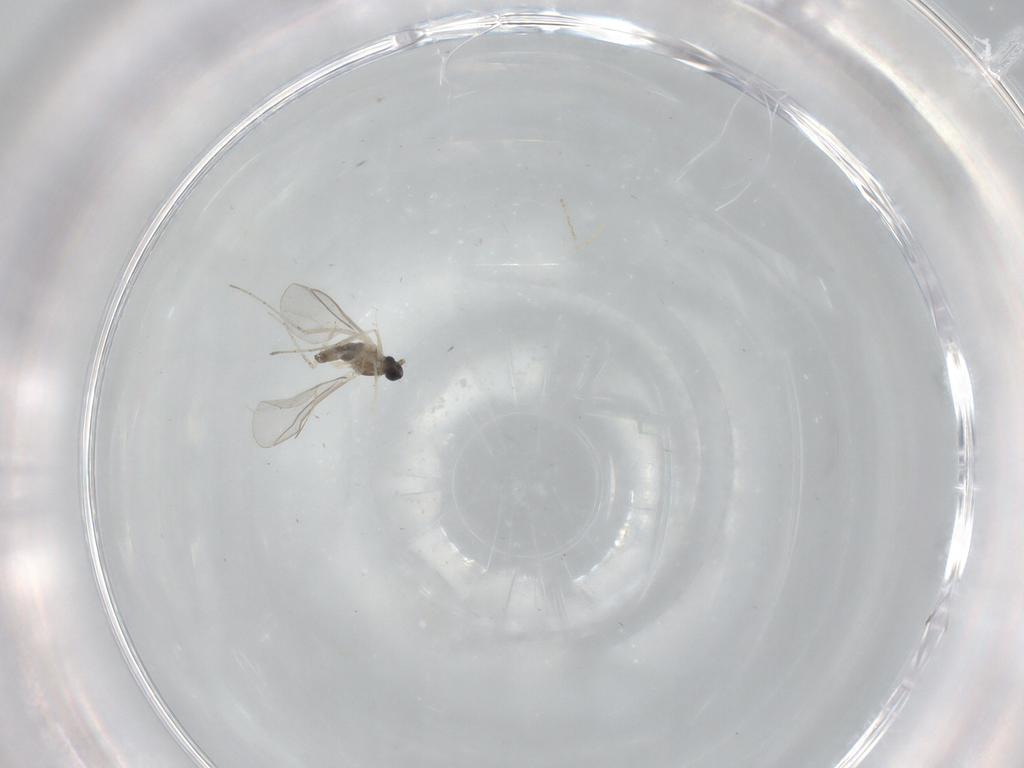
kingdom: Animalia
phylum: Arthropoda
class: Insecta
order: Diptera
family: Cecidomyiidae
